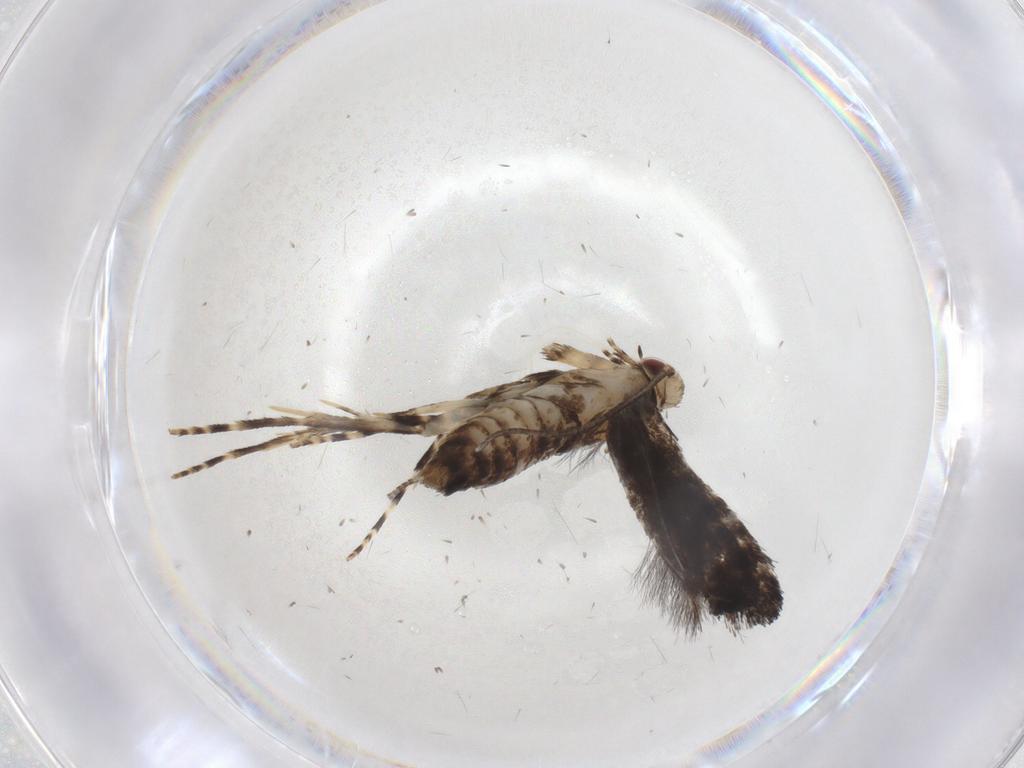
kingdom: Animalia
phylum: Arthropoda
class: Insecta
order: Lepidoptera
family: Gracillariidae
